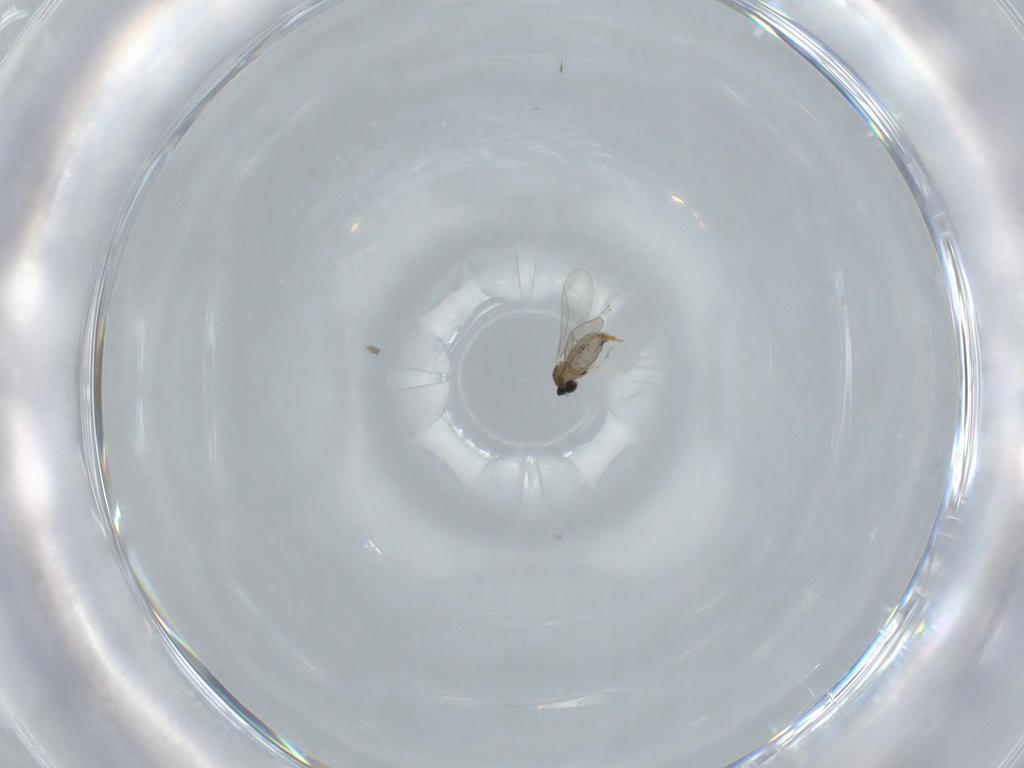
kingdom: Animalia
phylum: Arthropoda
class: Insecta
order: Diptera
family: Cecidomyiidae
